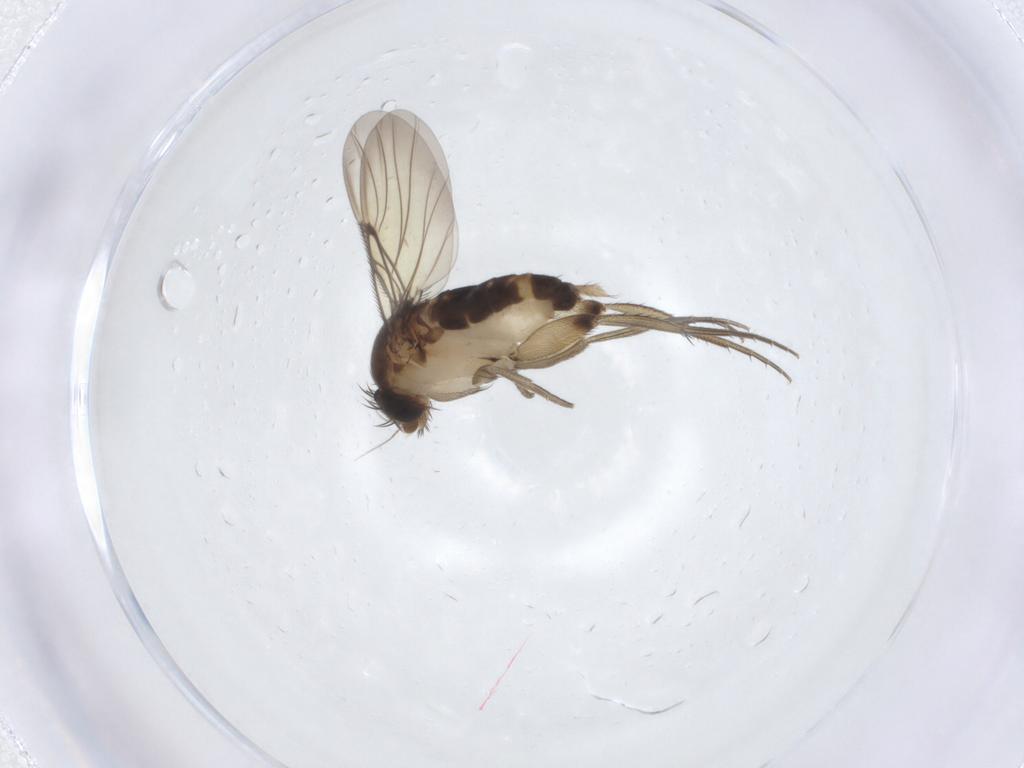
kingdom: Animalia
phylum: Arthropoda
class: Insecta
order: Diptera
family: Phoridae
